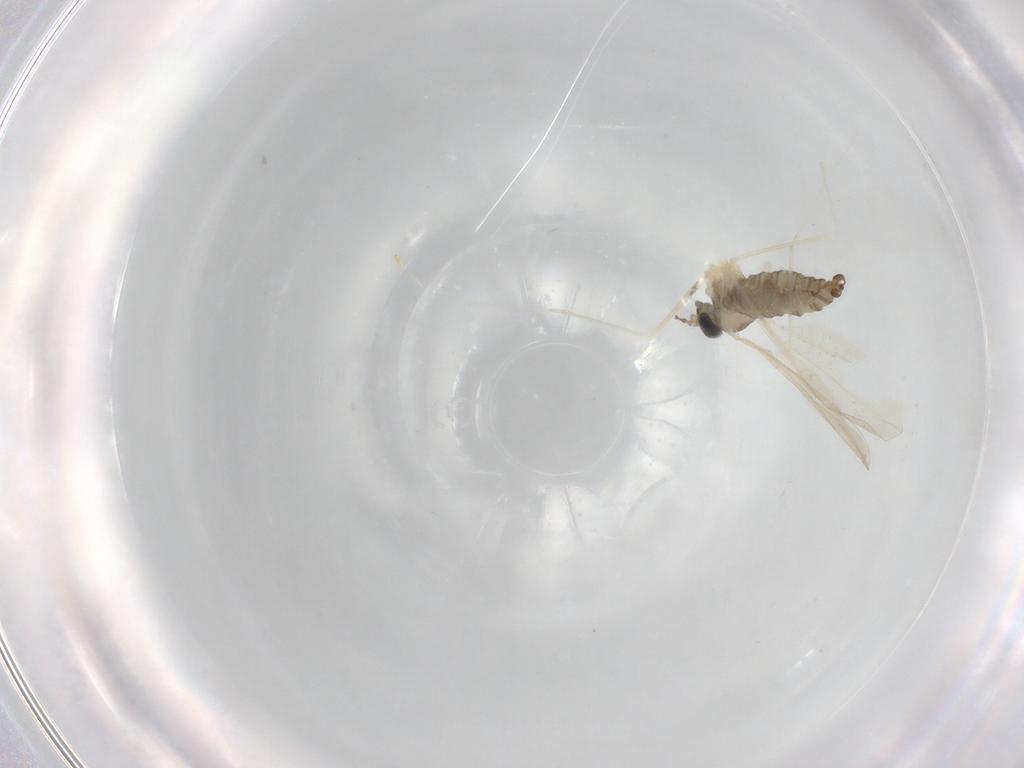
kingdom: Animalia
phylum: Arthropoda
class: Insecta
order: Diptera
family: Cecidomyiidae
